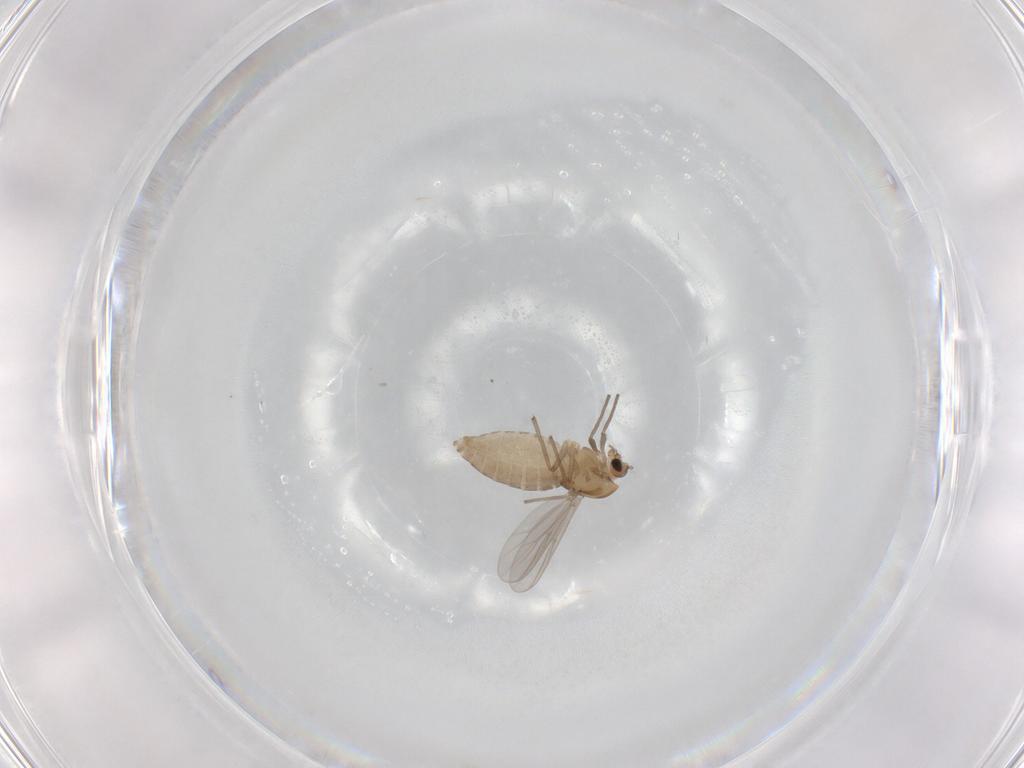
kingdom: Animalia
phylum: Arthropoda
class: Insecta
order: Diptera
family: Chironomidae
